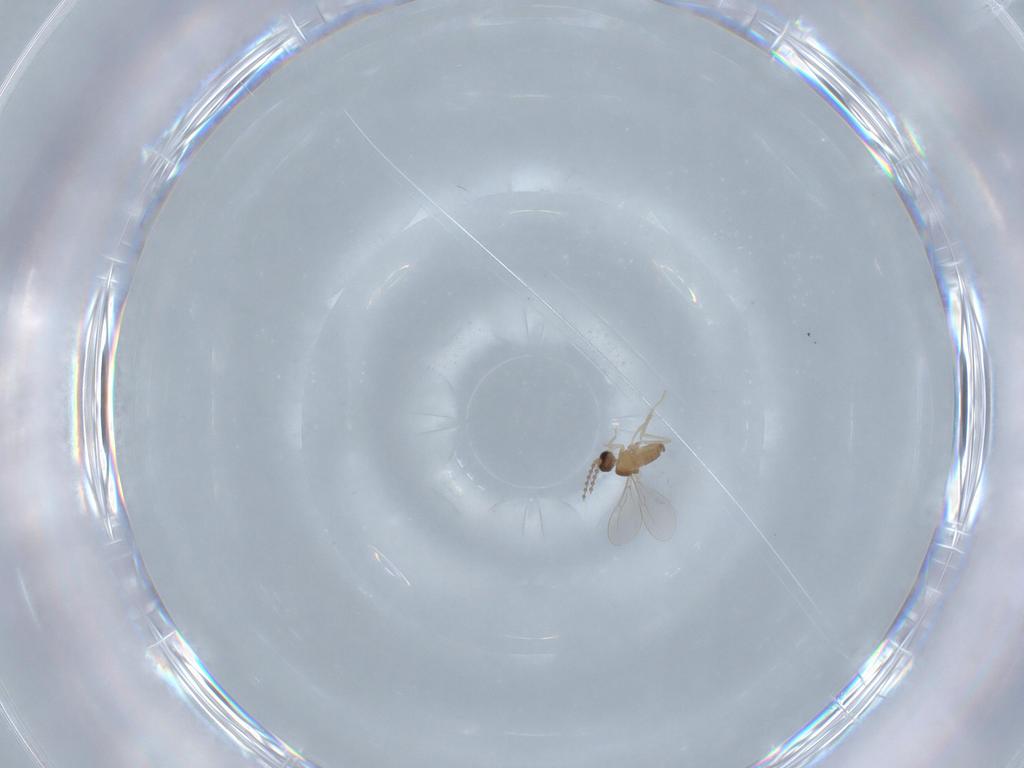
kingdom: Animalia
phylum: Arthropoda
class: Insecta
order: Diptera
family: Cecidomyiidae
